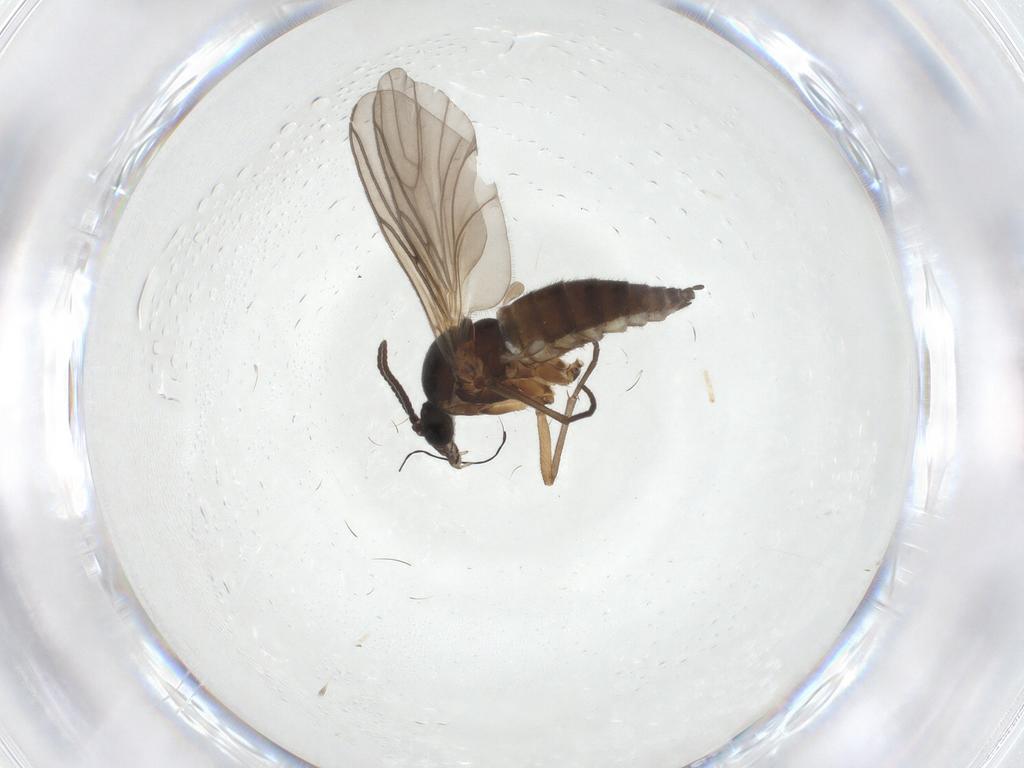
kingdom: Animalia
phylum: Arthropoda
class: Insecta
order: Diptera
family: Sciaridae
